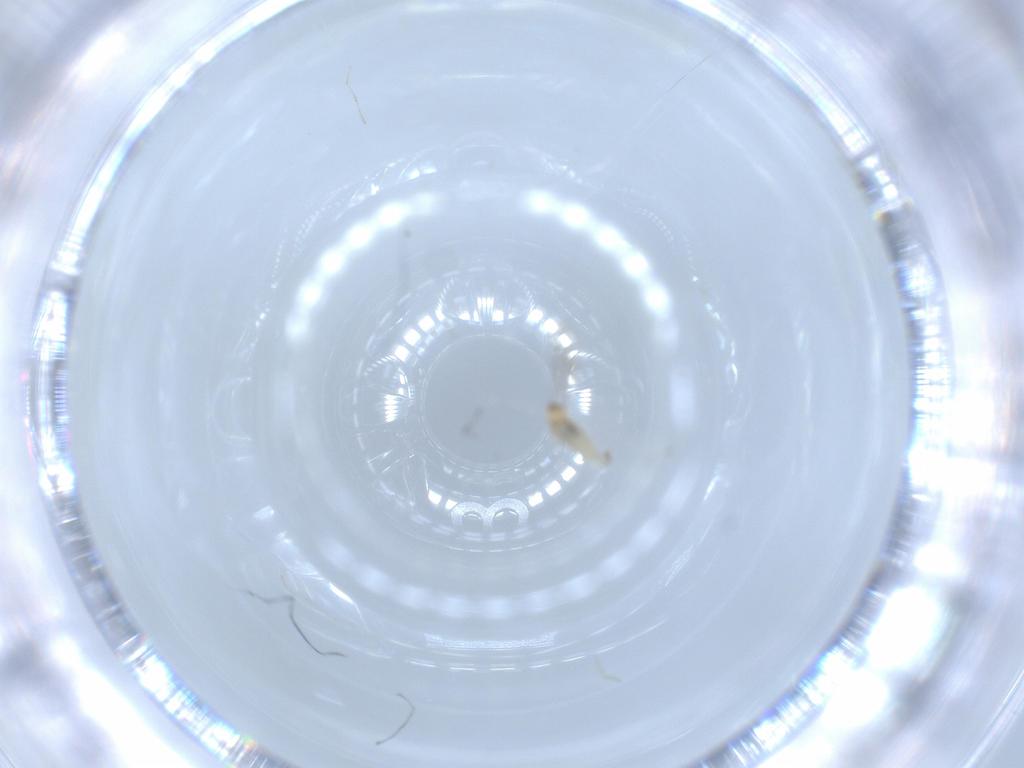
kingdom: Animalia
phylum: Arthropoda
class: Insecta
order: Diptera
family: Cecidomyiidae
